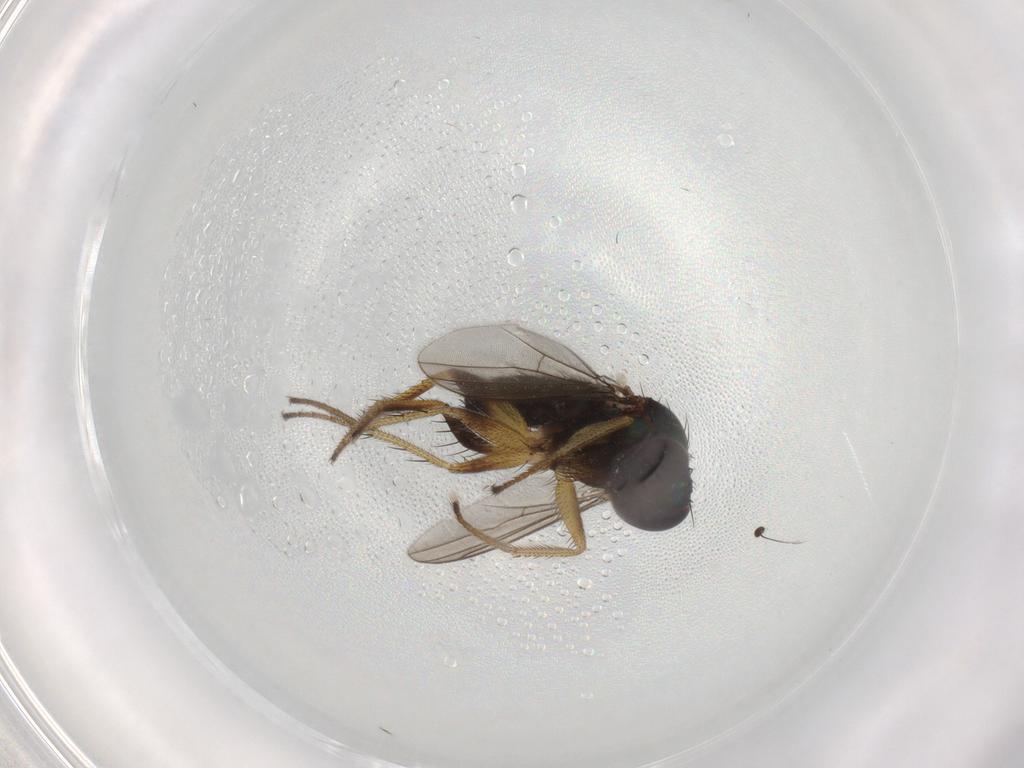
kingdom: Animalia
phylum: Arthropoda
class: Insecta
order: Diptera
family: Dolichopodidae
